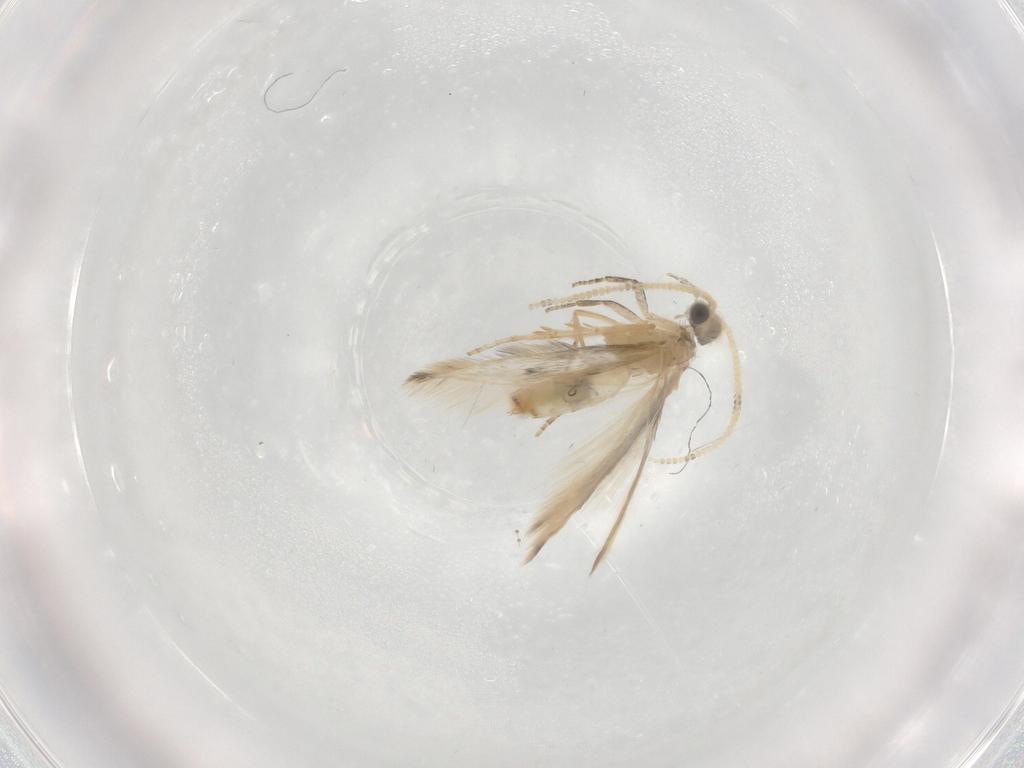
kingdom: Animalia
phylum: Arthropoda
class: Insecta
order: Trichoptera
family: Hydroptilidae
